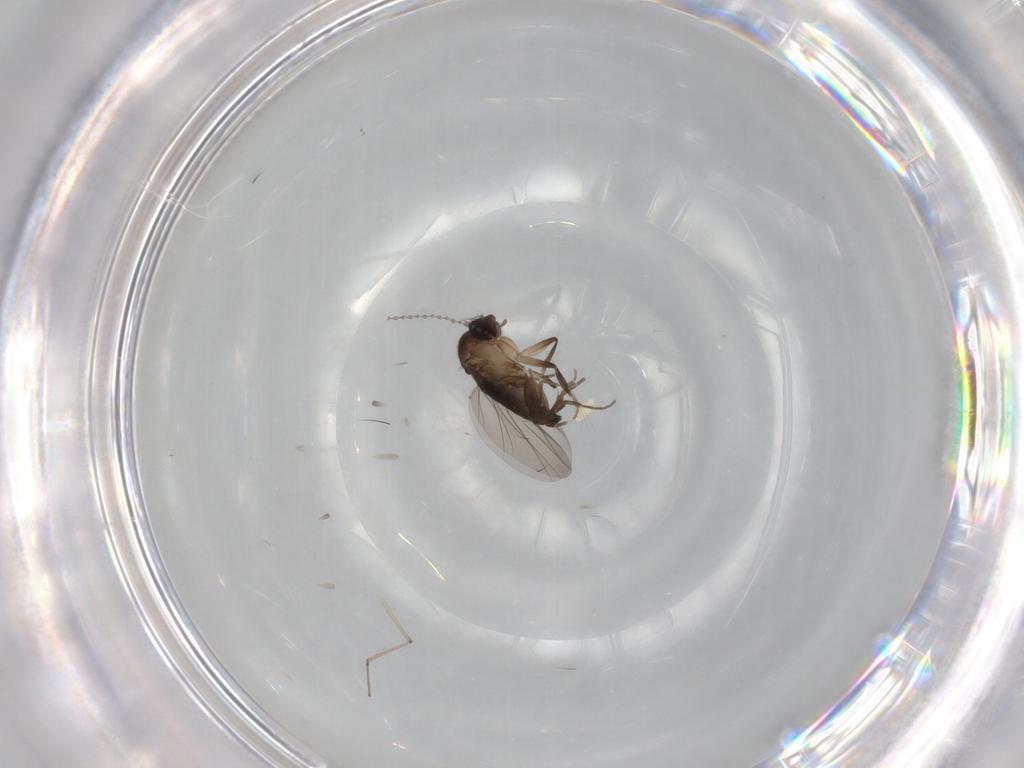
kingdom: Animalia
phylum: Arthropoda
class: Insecta
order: Diptera
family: Phoridae
